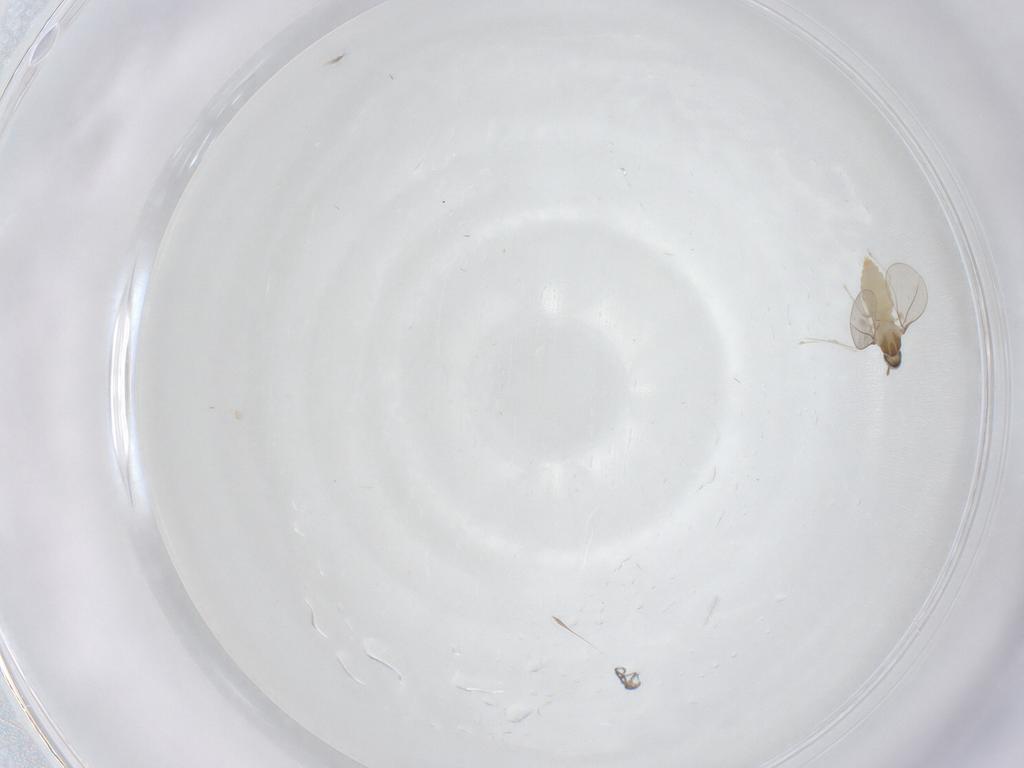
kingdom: Animalia
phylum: Arthropoda
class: Insecta
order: Diptera
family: Cecidomyiidae
